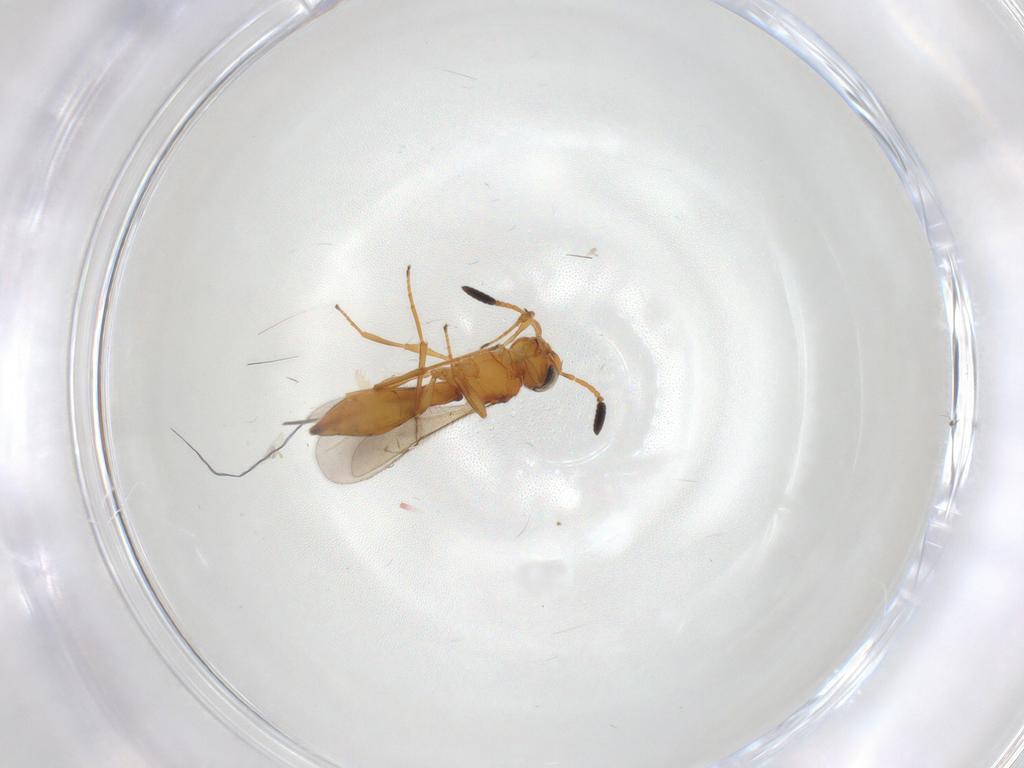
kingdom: Animalia
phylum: Arthropoda
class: Insecta
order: Hymenoptera
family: Scelionidae
